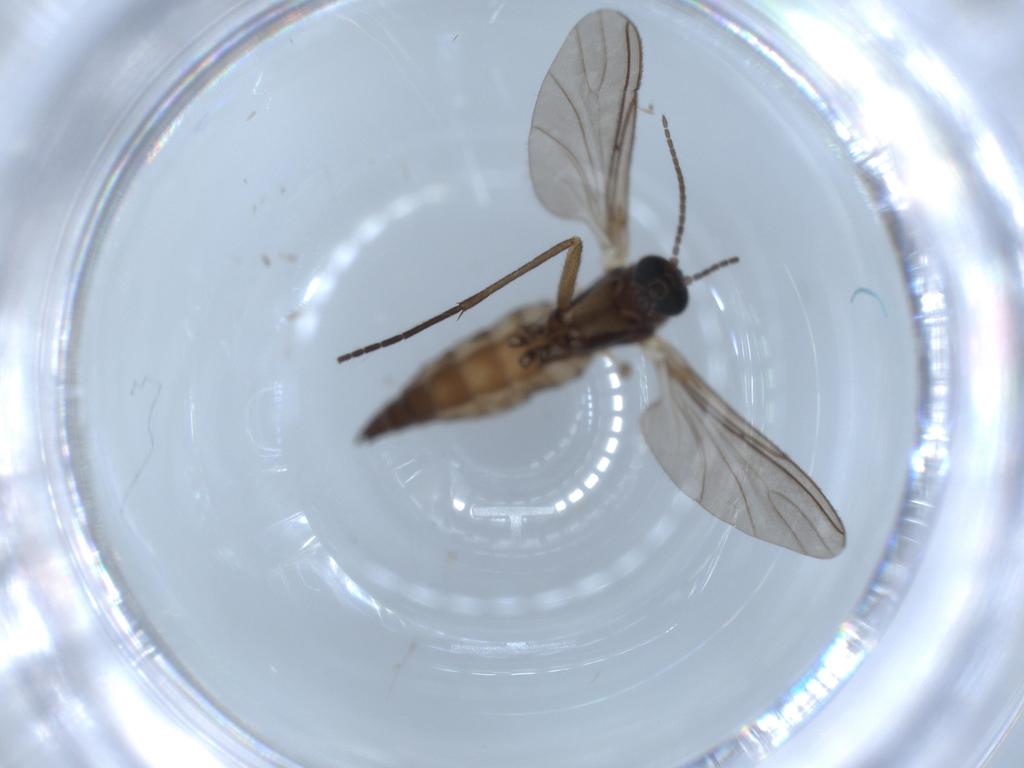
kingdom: Animalia
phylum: Arthropoda
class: Insecta
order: Diptera
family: Sciaridae
